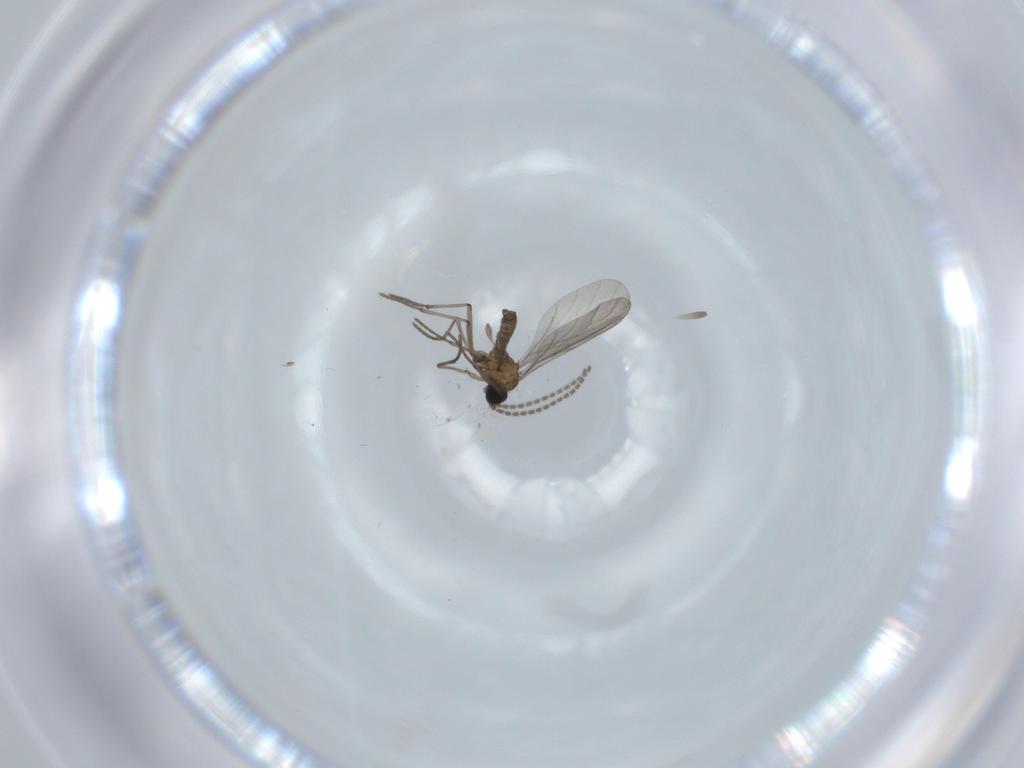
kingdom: Animalia
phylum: Arthropoda
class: Insecta
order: Diptera
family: Sciaridae
